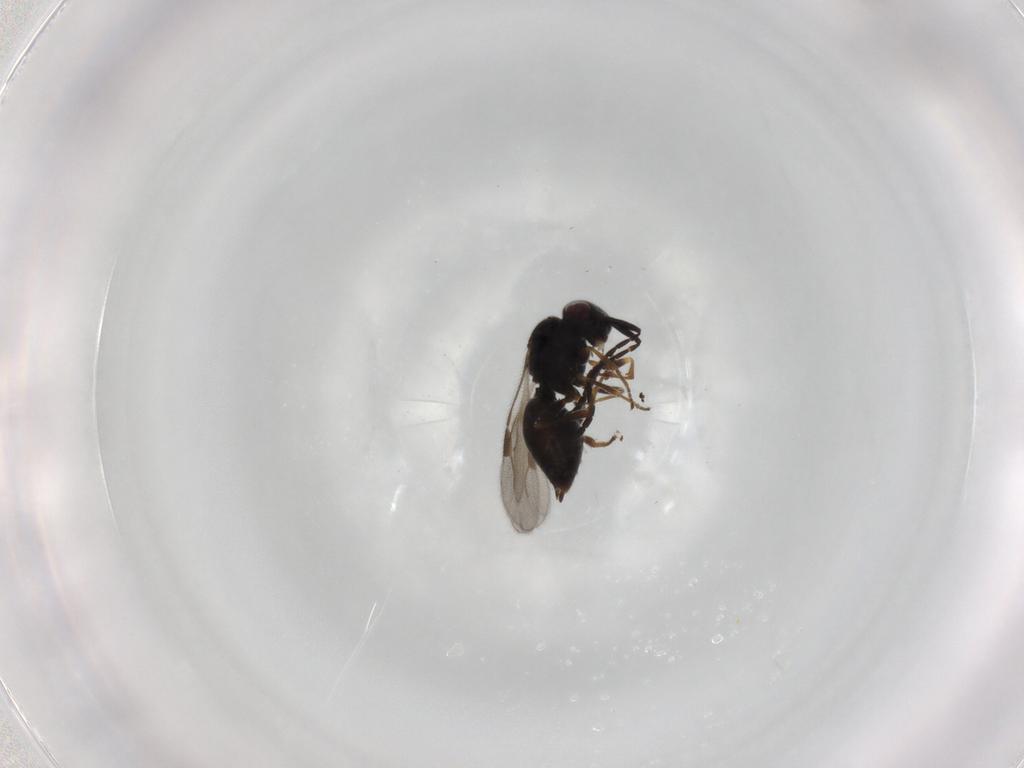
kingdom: Animalia
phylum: Arthropoda
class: Insecta
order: Hymenoptera
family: Megaspilidae
